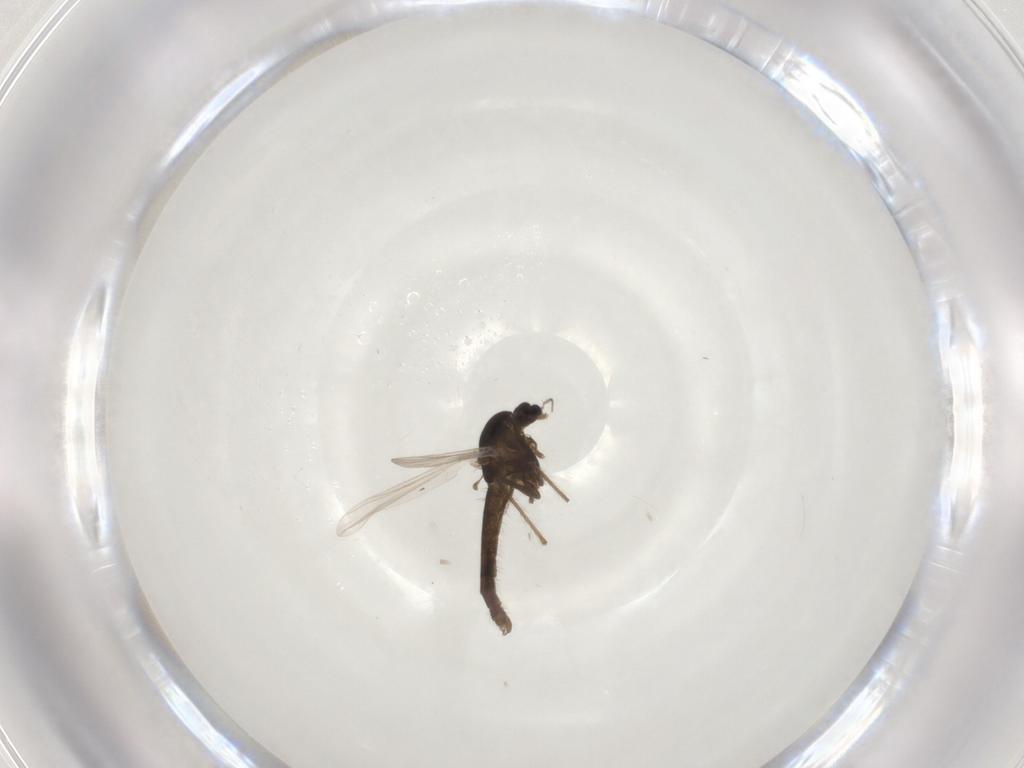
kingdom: Animalia
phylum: Arthropoda
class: Insecta
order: Diptera
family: Chironomidae
